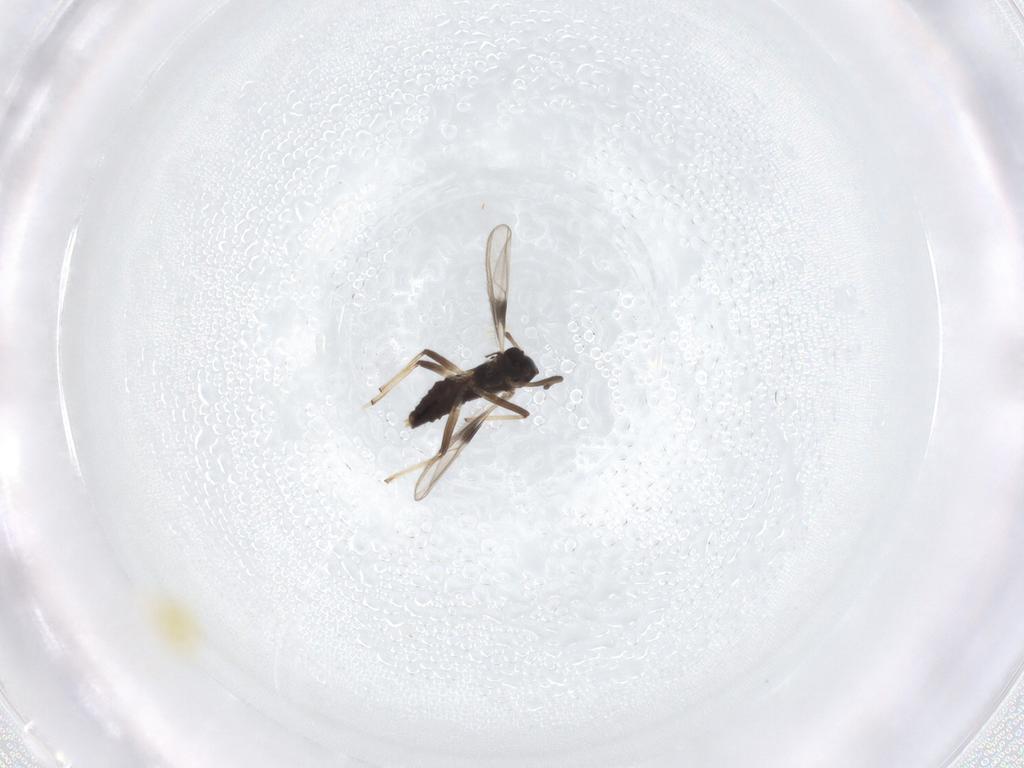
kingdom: Animalia
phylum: Arthropoda
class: Insecta
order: Diptera
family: Chironomidae
